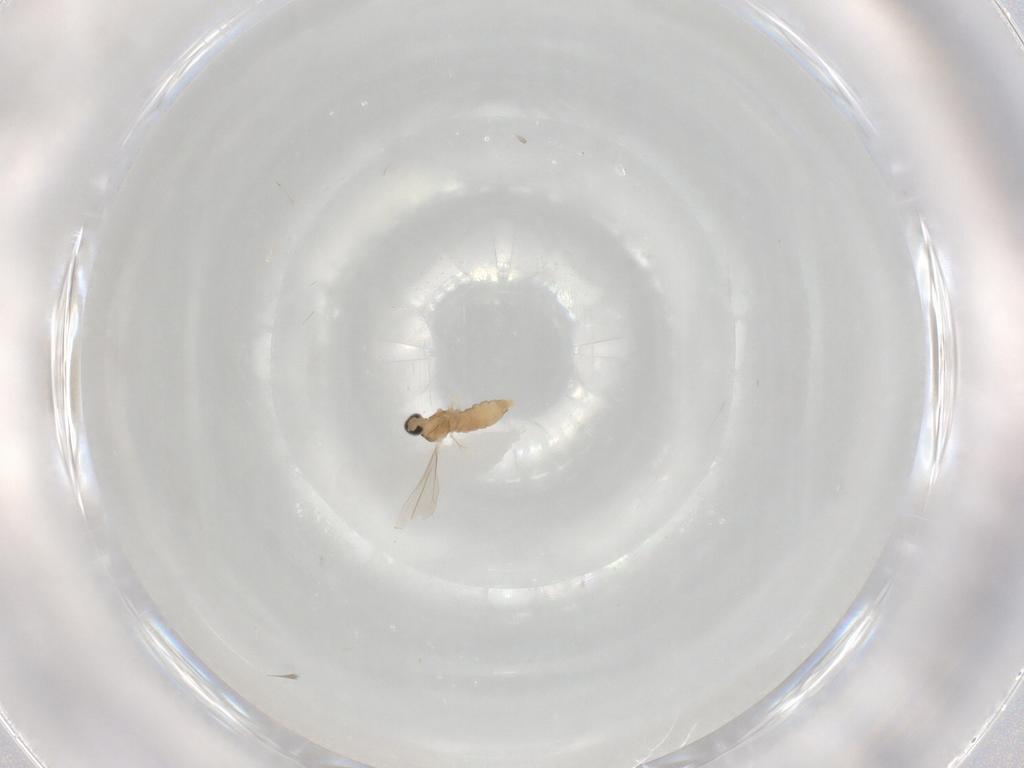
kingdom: Animalia
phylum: Arthropoda
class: Insecta
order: Diptera
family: Cecidomyiidae
